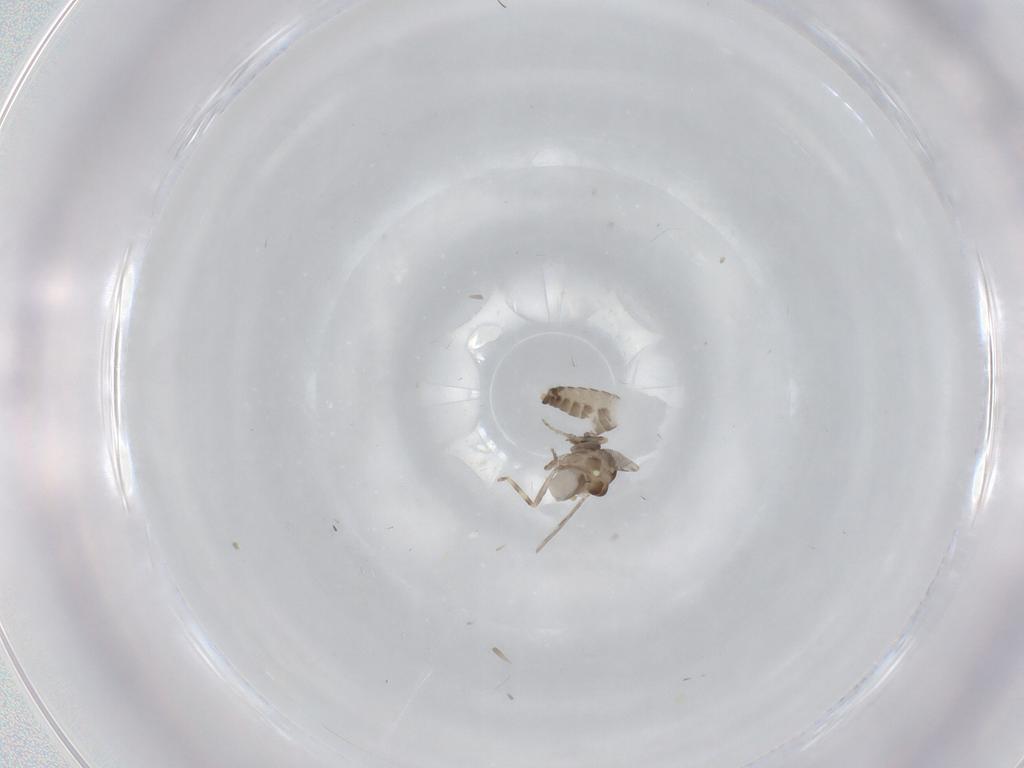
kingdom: Animalia
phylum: Arthropoda
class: Insecta
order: Diptera
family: Ceratopogonidae
